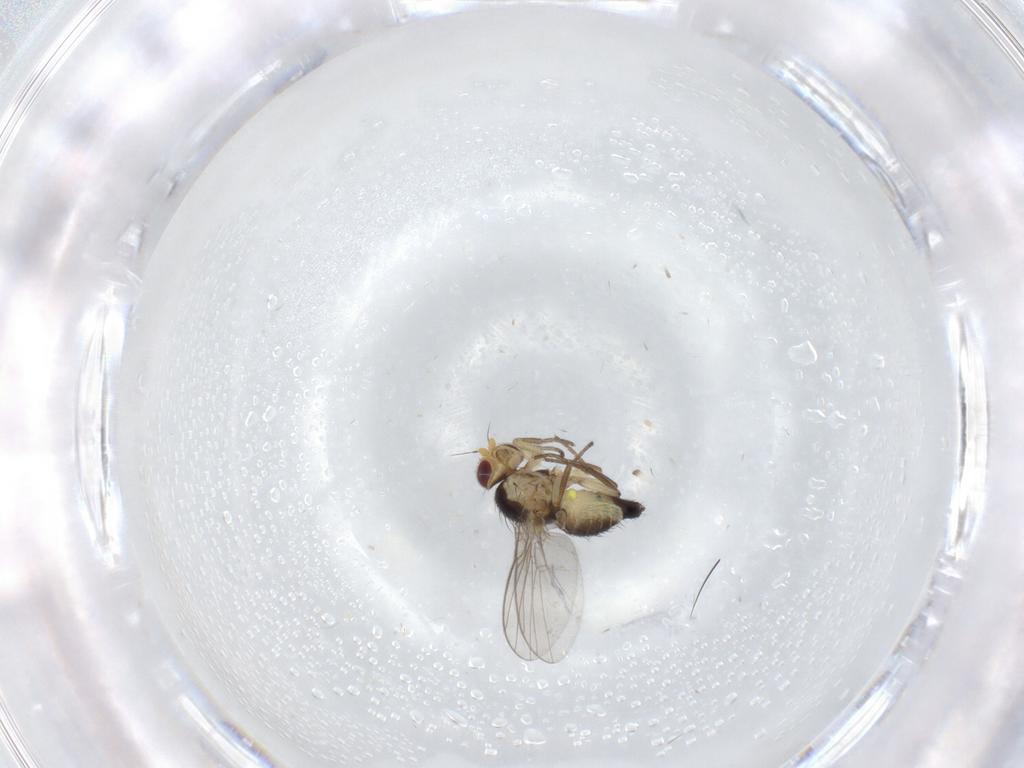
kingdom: Animalia
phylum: Arthropoda
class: Insecta
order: Diptera
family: Agromyzidae
